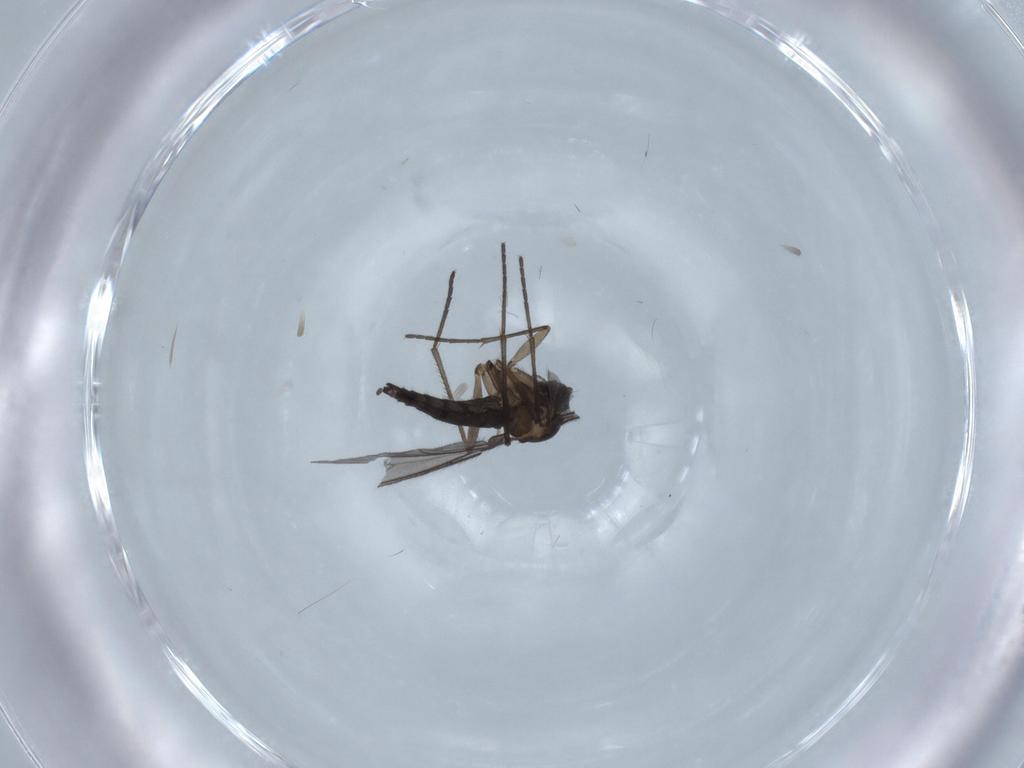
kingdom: Animalia
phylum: Arthropoda
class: Insecta
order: Diptera
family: Sciaridae
